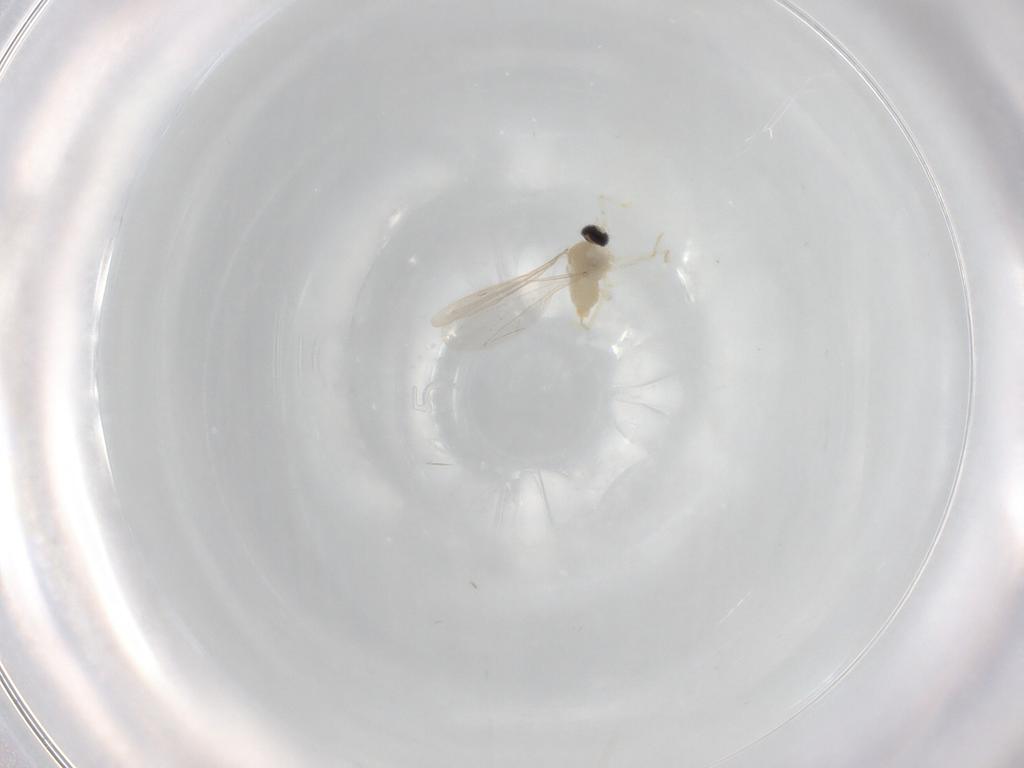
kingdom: Animalia
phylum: Arthropoda
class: Insecta
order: Diptera
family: Cecidomyiidae
